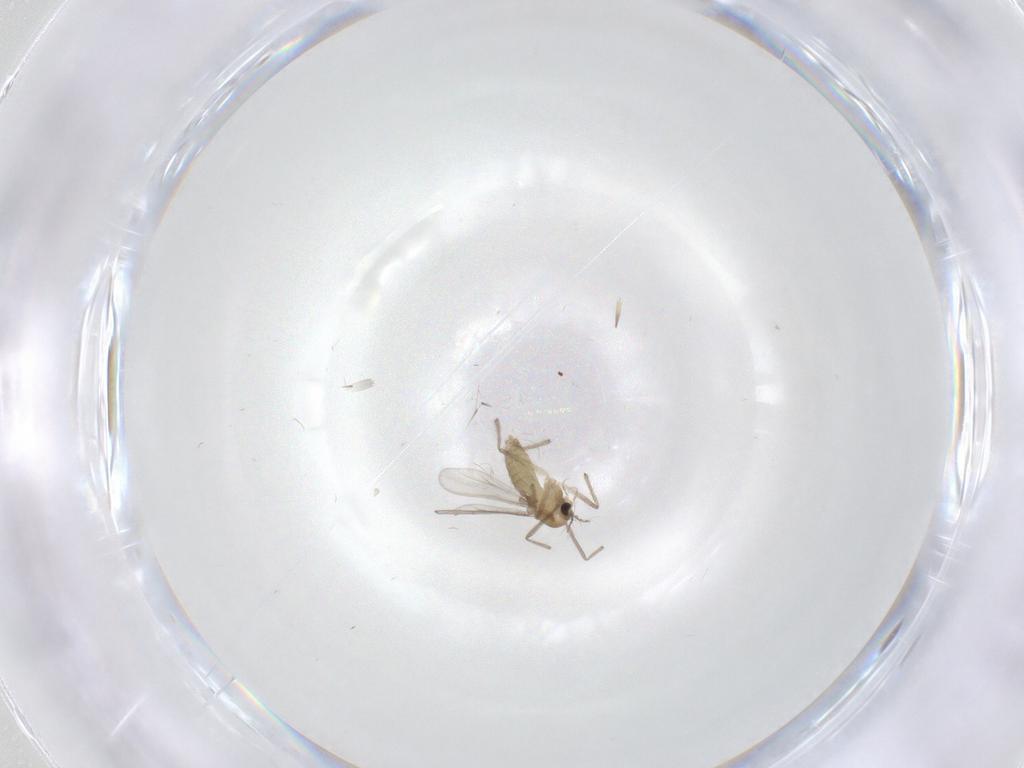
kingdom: Animalia
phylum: Arthropoda
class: Insecta
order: Diptera
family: Chironomidae
